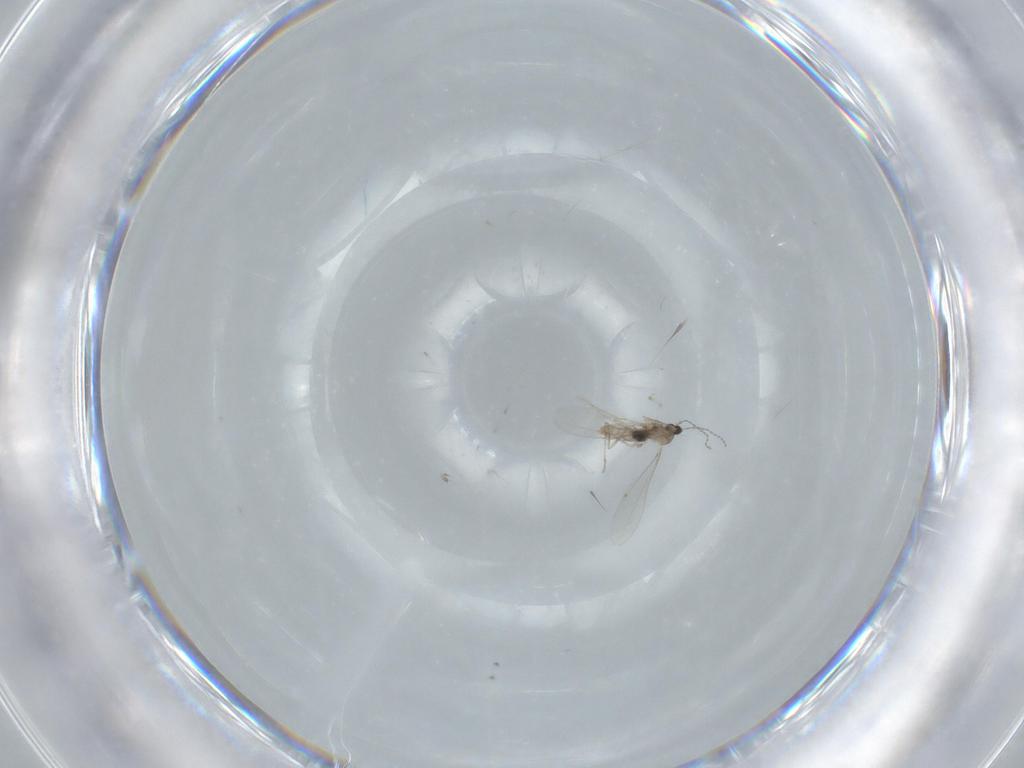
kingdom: Animalia
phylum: Arthropoda
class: Insecta
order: Diptera
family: Cecidomyiidae
